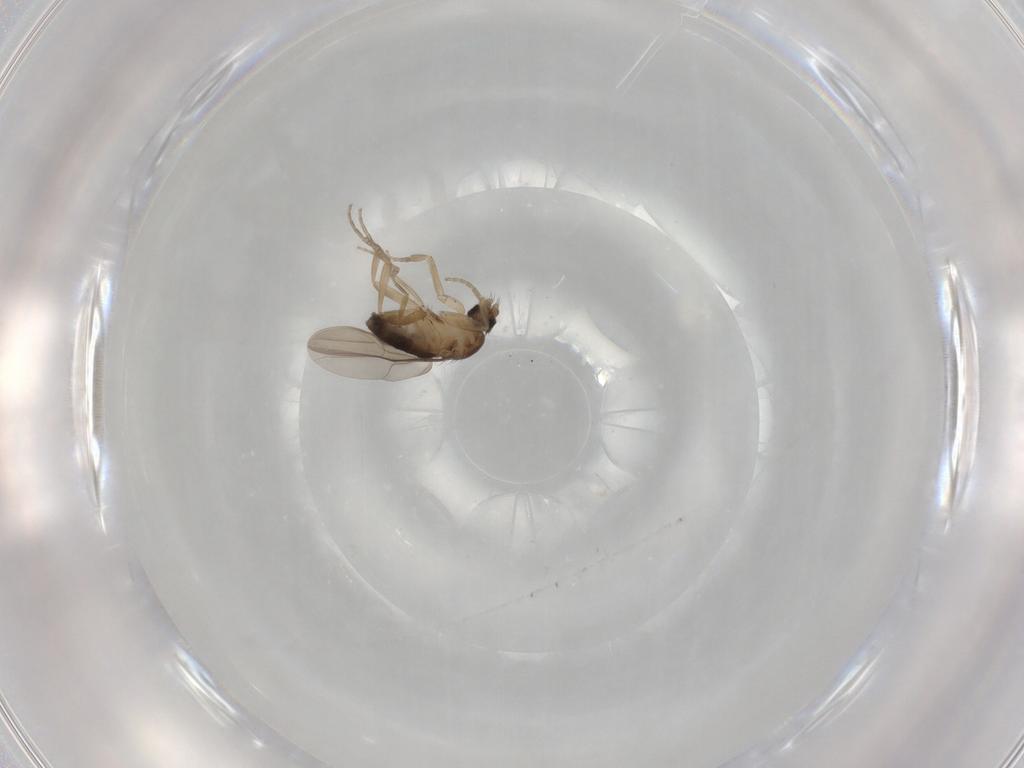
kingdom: Animalia
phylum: Arthropoda
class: Insecta
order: Diptera
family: Phoridae
